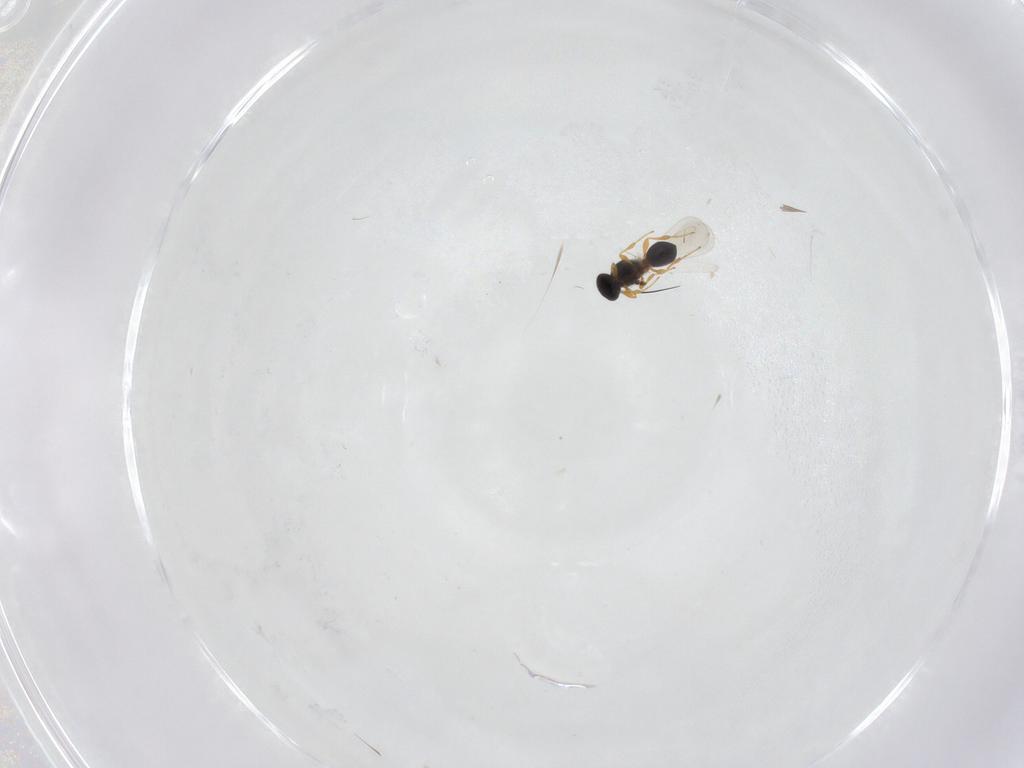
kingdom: Animalia
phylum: Arthropoda
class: Insecta
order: Hymenoptera
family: Platygastridae
